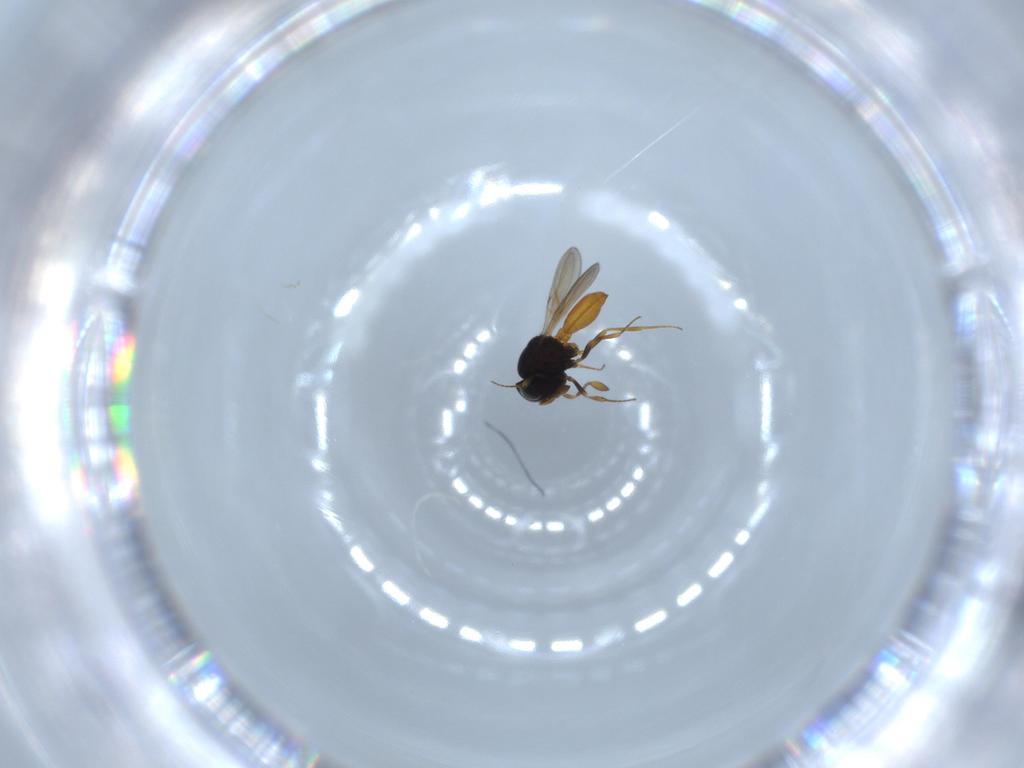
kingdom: Animalia
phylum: Arthropoda
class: Insecta
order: Hymenoptera
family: Scelionidae
